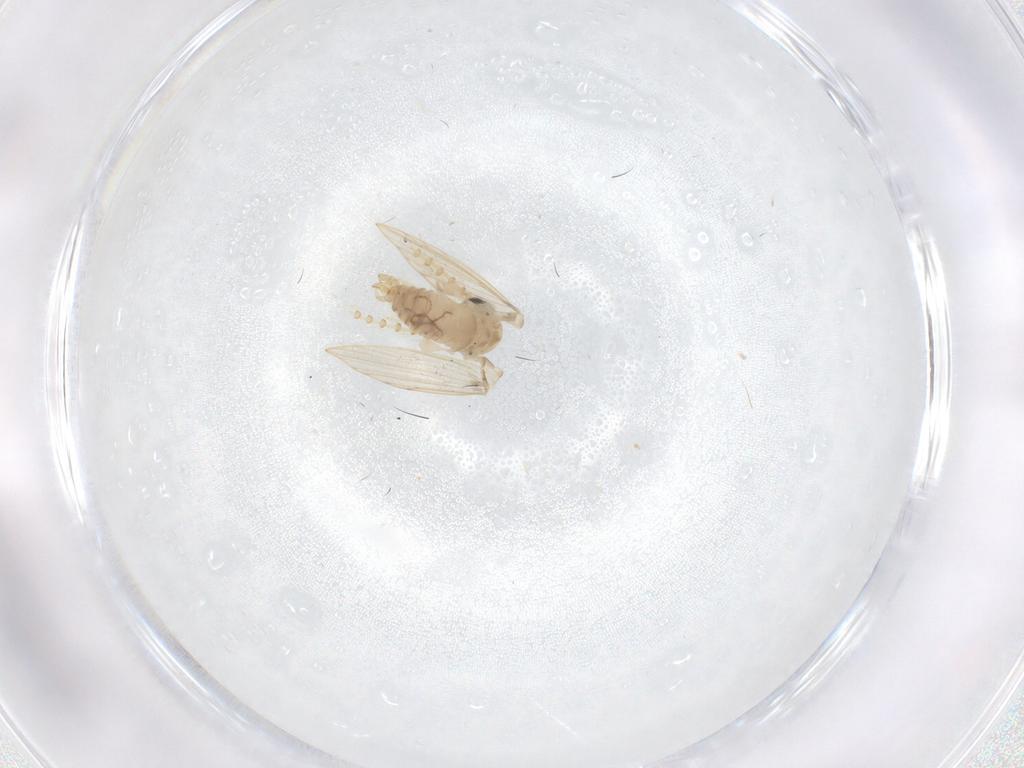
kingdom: Animalia
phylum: Arthropoda
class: Insecta
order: Diptera
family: Psychodidae
